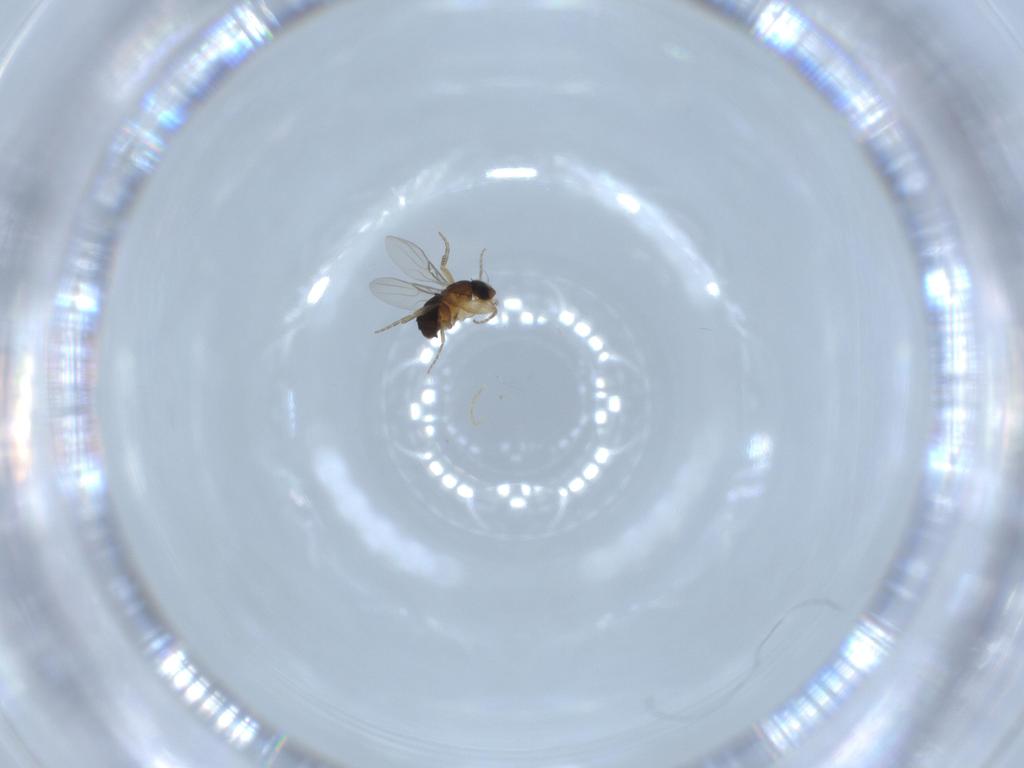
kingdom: Animalia
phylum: Arthropoda
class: Insecta
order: Diptera
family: Phoridae
